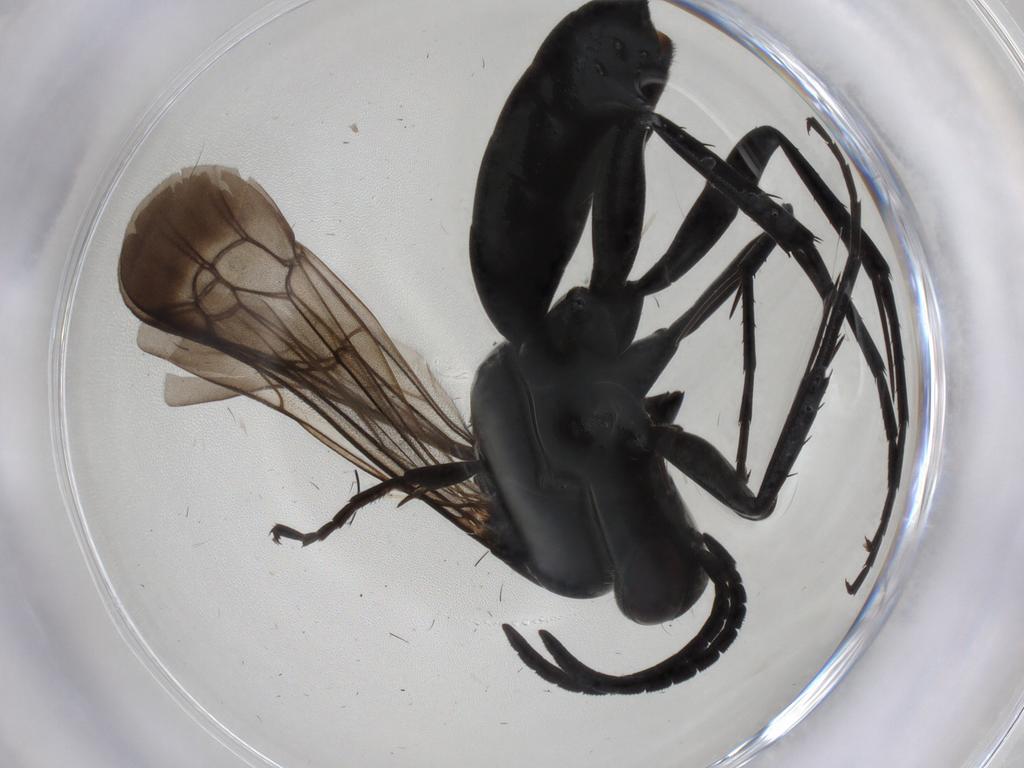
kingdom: Animalia
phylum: Arthropoda
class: Insecta
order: Hymenoptera
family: Pompilidae
